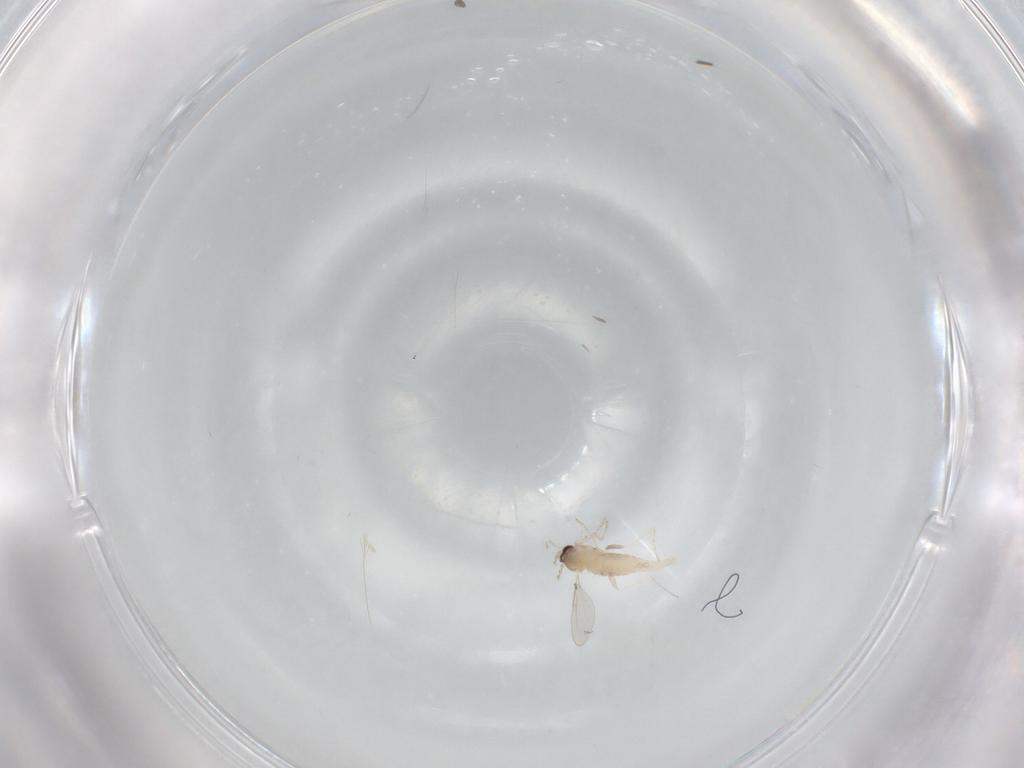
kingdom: Animalia
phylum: Arthropoda
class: Insecta
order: Diptera
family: Cecidomyiidae
